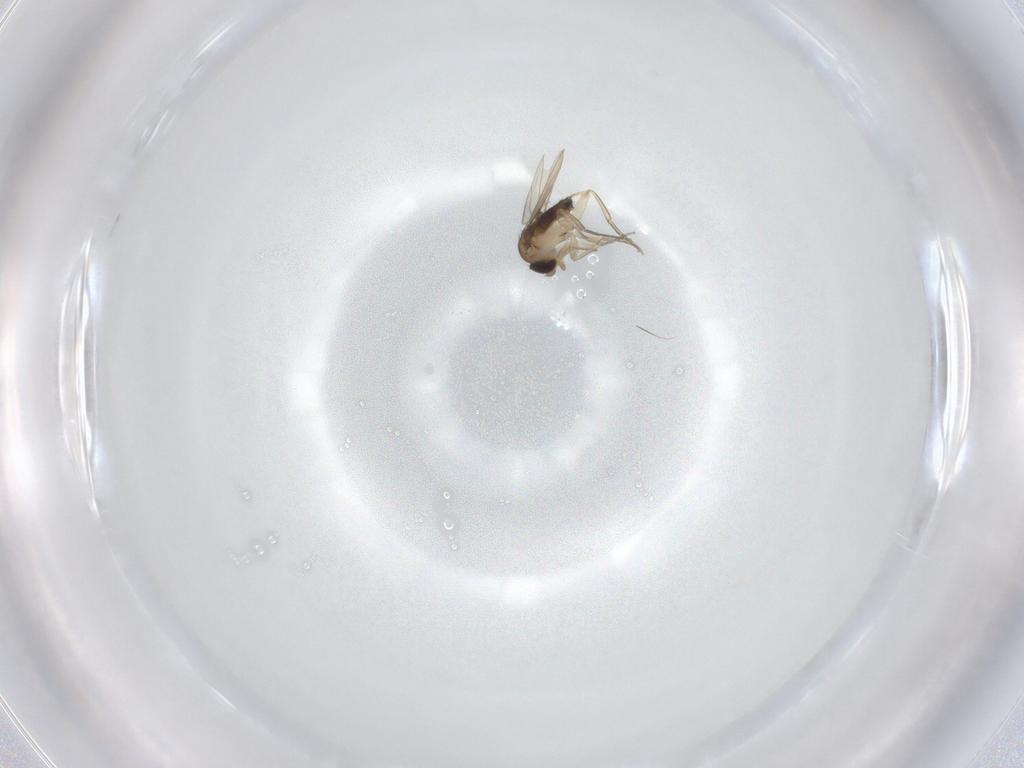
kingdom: Animalia
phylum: Arthropoda
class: Insecta
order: Diptera
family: Phoridae
